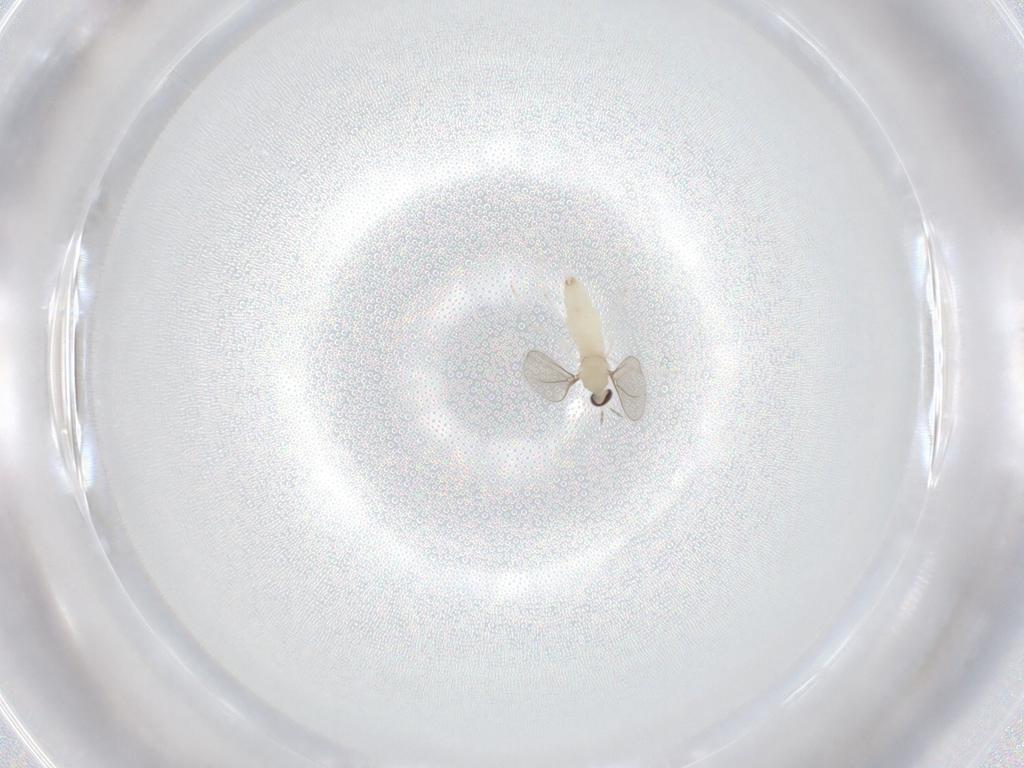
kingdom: Animalia
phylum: Arthropoda
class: Insecta
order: Diptera
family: Cecidomyiidae
